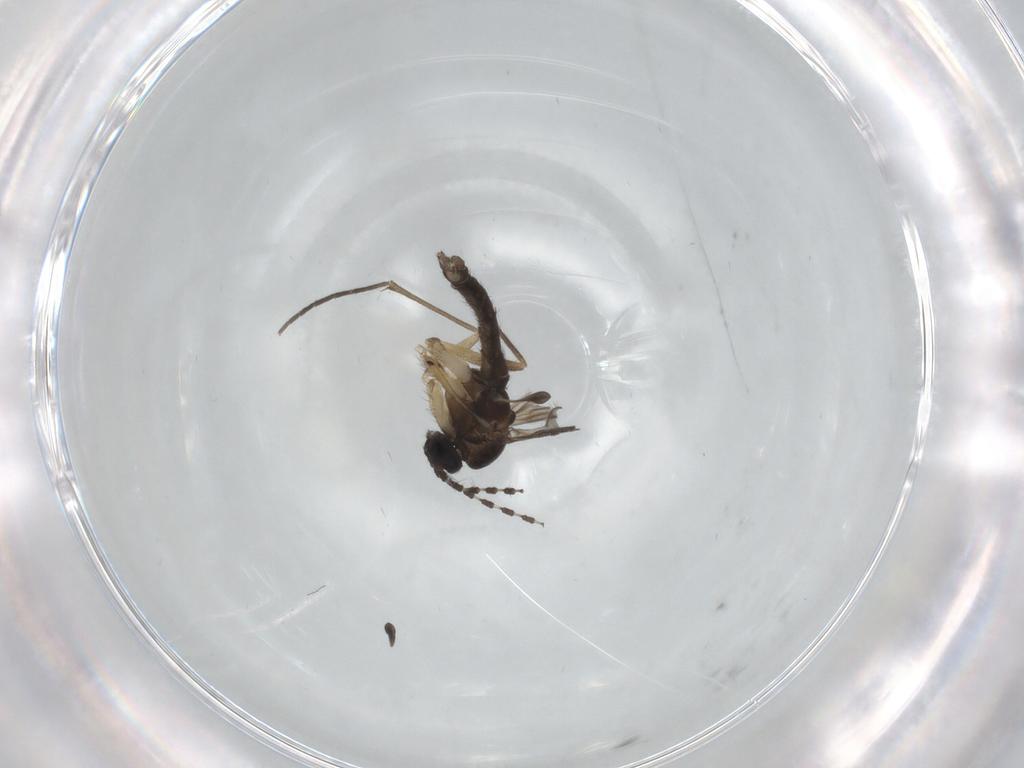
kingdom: Animalia
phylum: Arthropoda
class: Insecta
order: Diptera
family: Sciaridae
